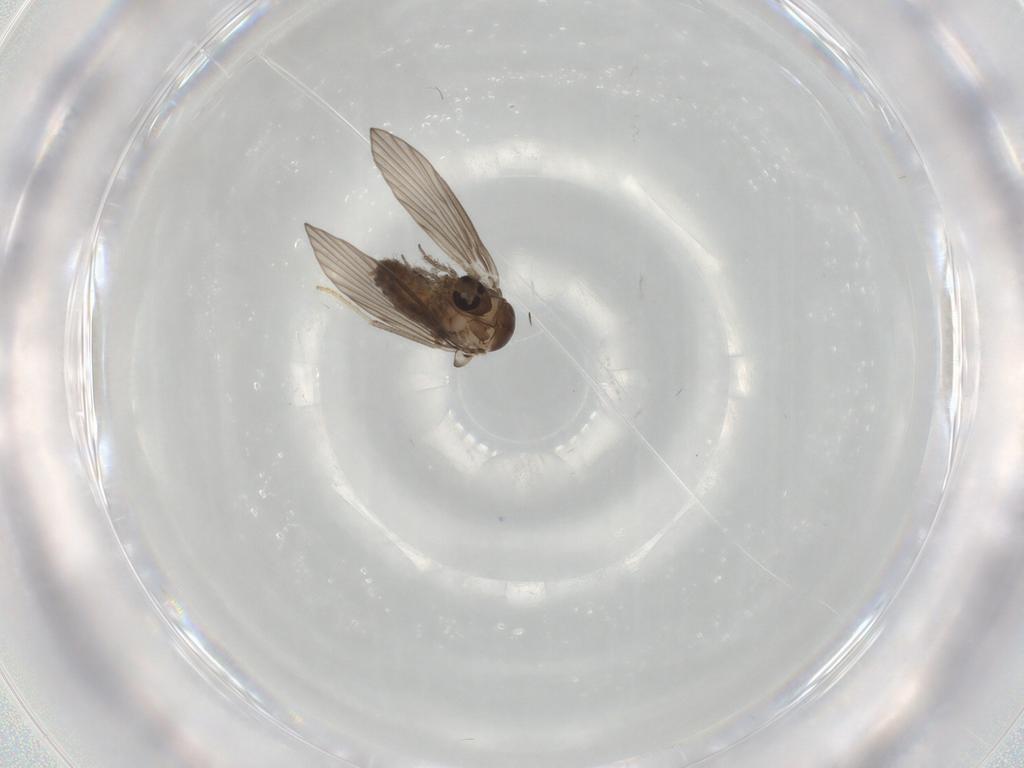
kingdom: Animalia
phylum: Arthropoda
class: Insecta
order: Diptera
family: Psychodidae
